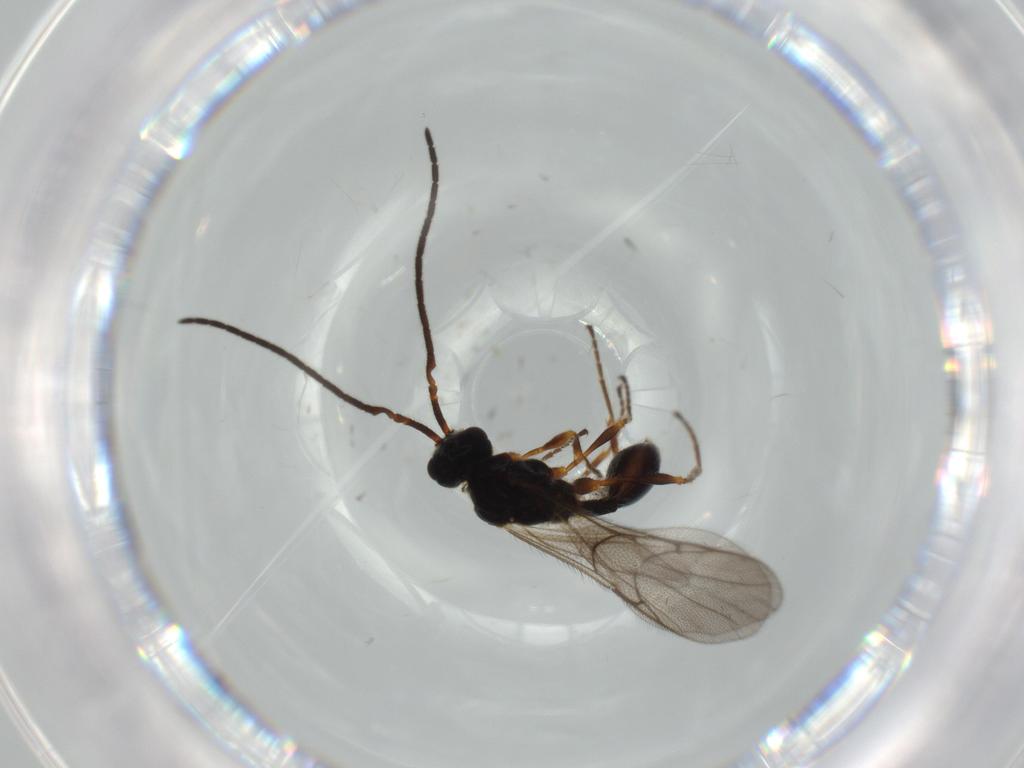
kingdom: Animalia
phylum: Arthropoda
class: Insecta
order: Hymenoptera
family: Diapriidae
